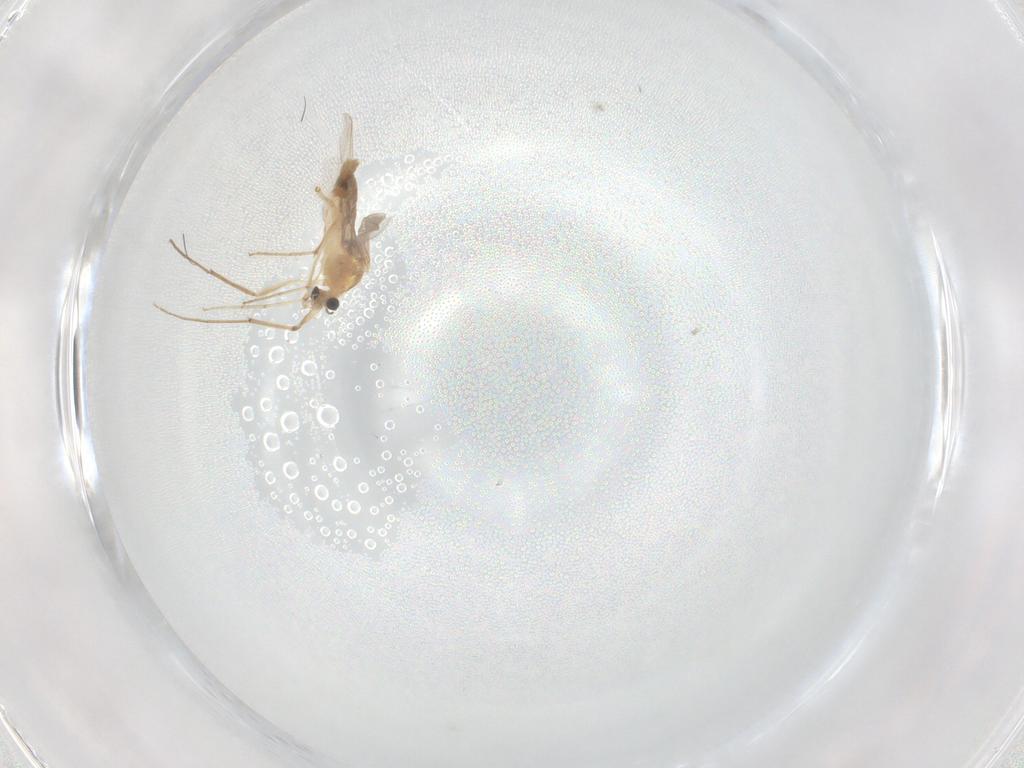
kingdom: Animalia
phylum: Arthropoda
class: Insecta
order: Diptera
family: Chironomidae
